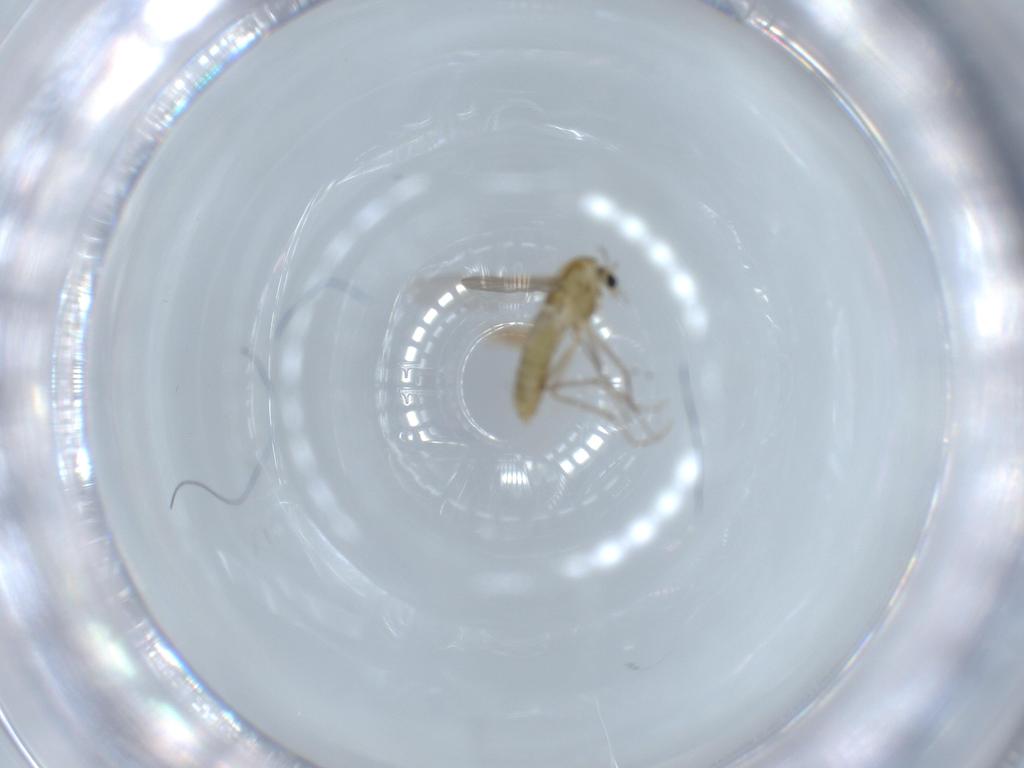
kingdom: Animalia
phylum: Arthropoda
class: Insecta
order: Diptera
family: Chironomidae
